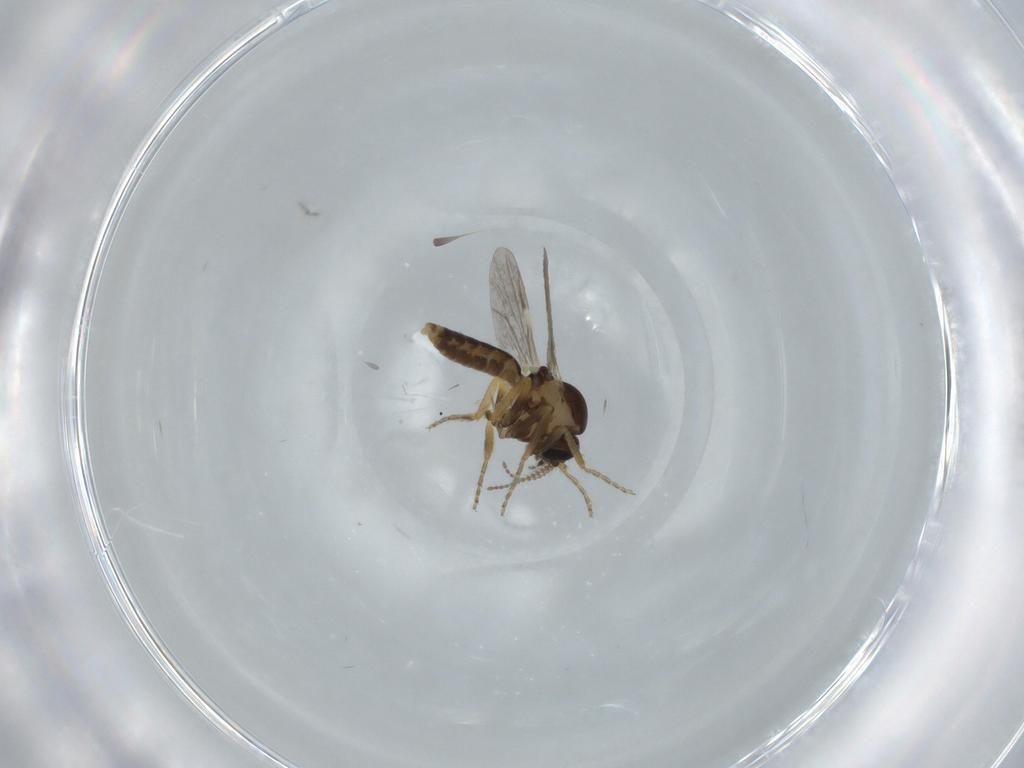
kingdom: Animalia
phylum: Arthropoda
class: Insecta
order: Diptera
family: Ceratopogonidae
